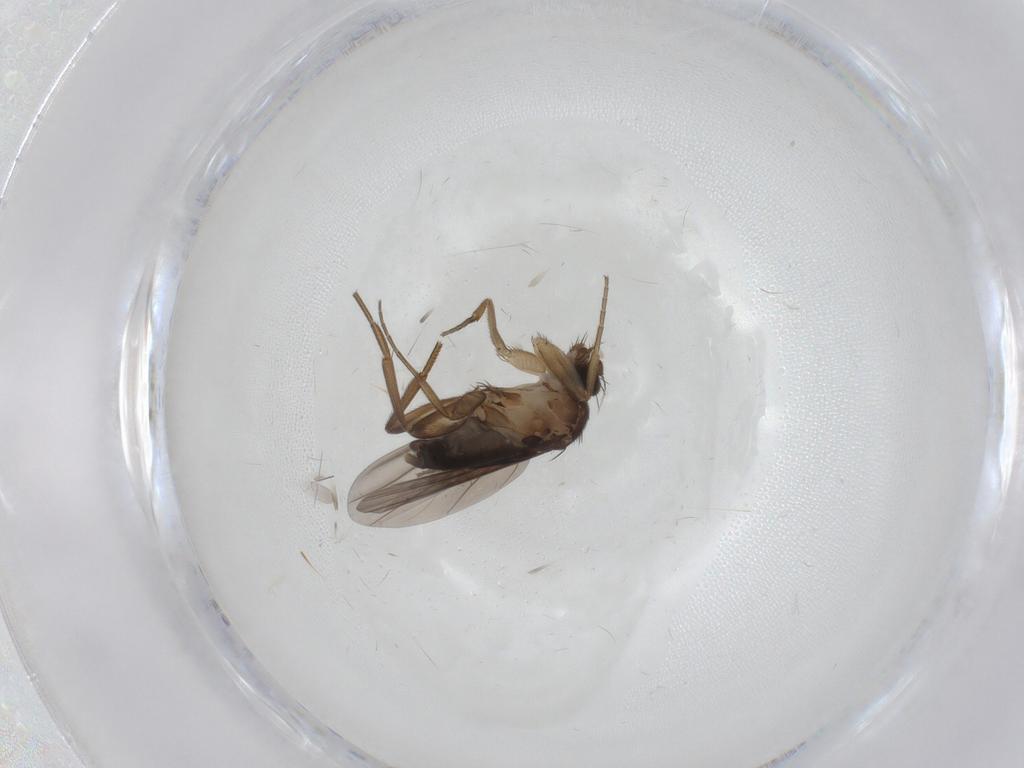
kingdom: Animalia
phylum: Arthropoda
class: Insecta
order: Diptera
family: Phoridae
